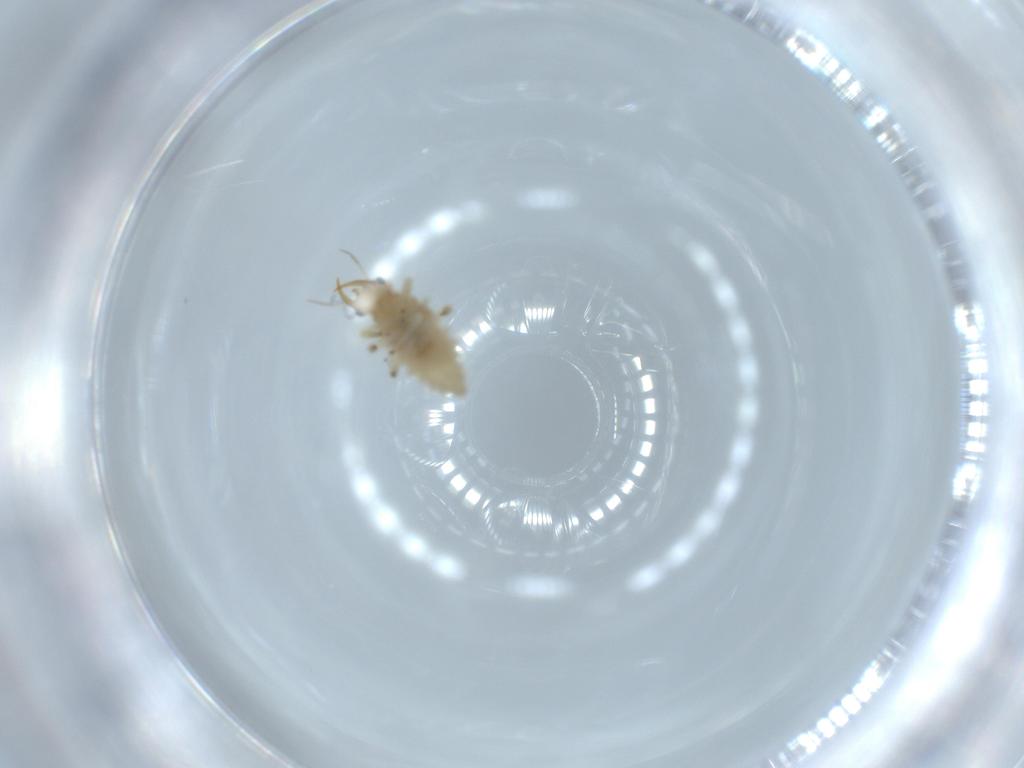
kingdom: Animalia
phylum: Arthropoda
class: Insecta
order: Neuroptera
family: Chrysopidae
